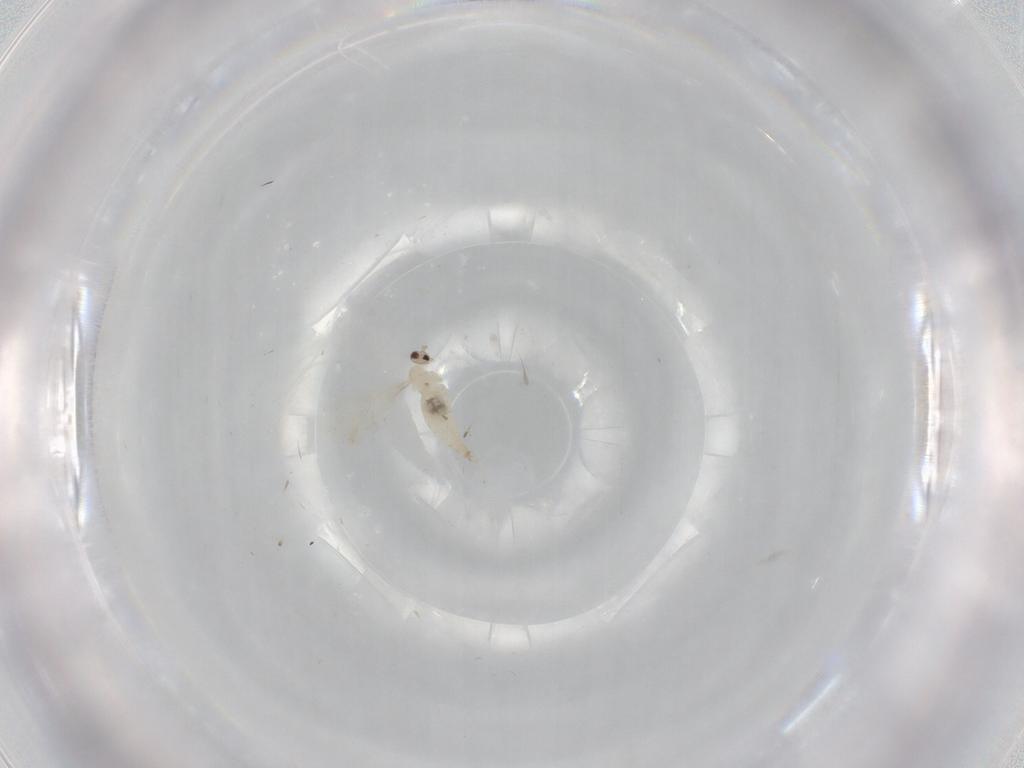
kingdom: Animalia
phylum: Arthropoda
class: Insecta
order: Diptera
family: Cecidomyiidae
